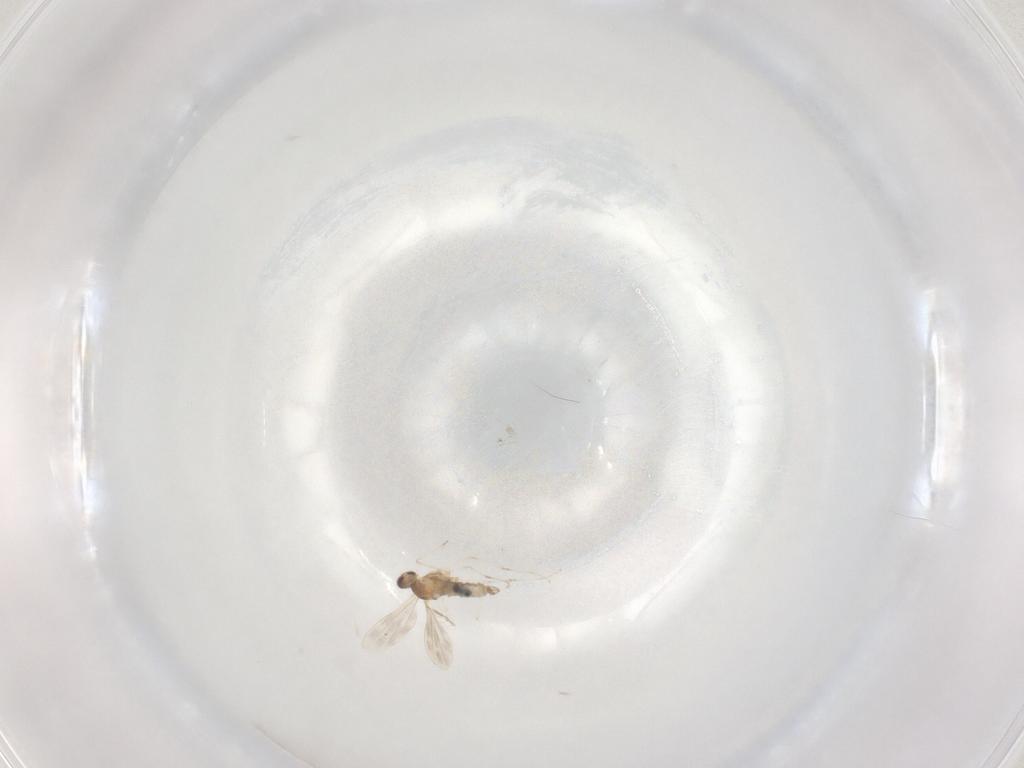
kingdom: Animalia
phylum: Arthropoda
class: Insecta
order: Diptera
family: Cecidomyiidae
